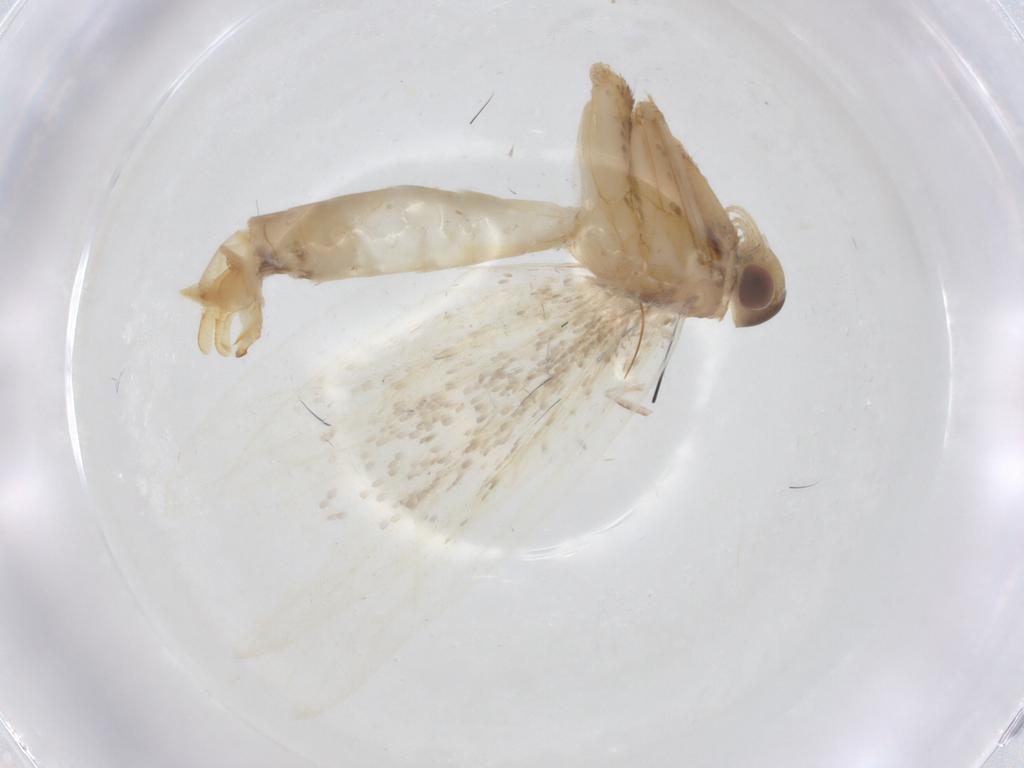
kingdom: Animalia
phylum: Arthropoda
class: Insecta
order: Lepidoptera
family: Lecithoceridae
